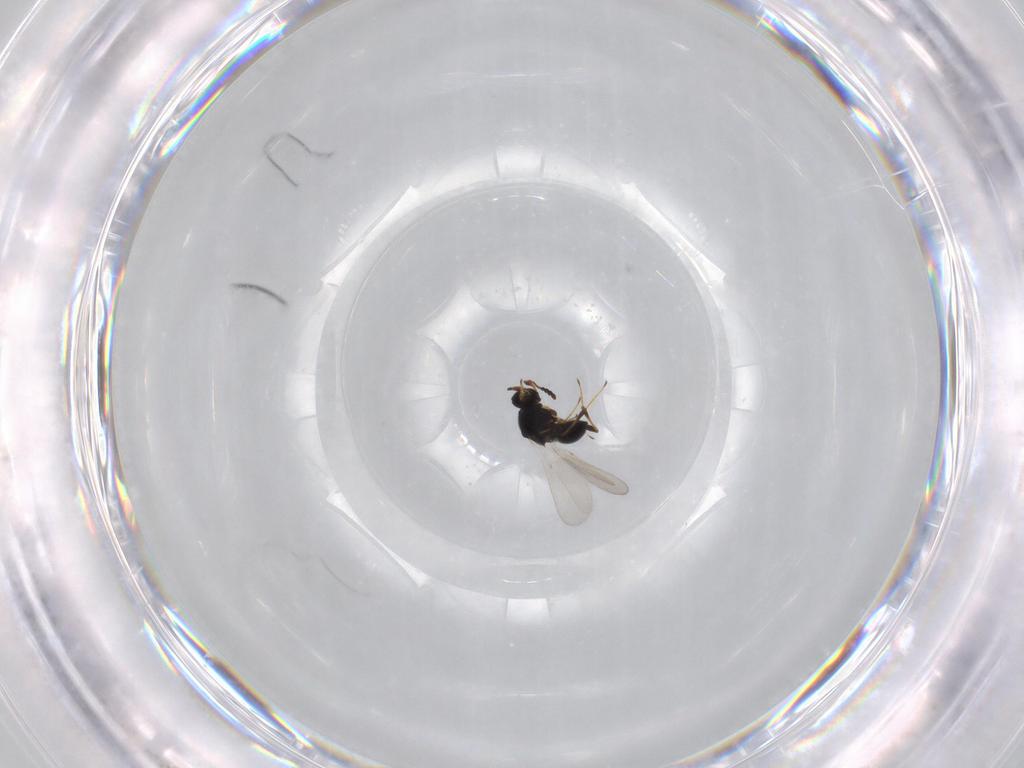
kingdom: Animalia
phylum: Arthropoda
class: Insecta
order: Hymenoptera
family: Platygastridae
